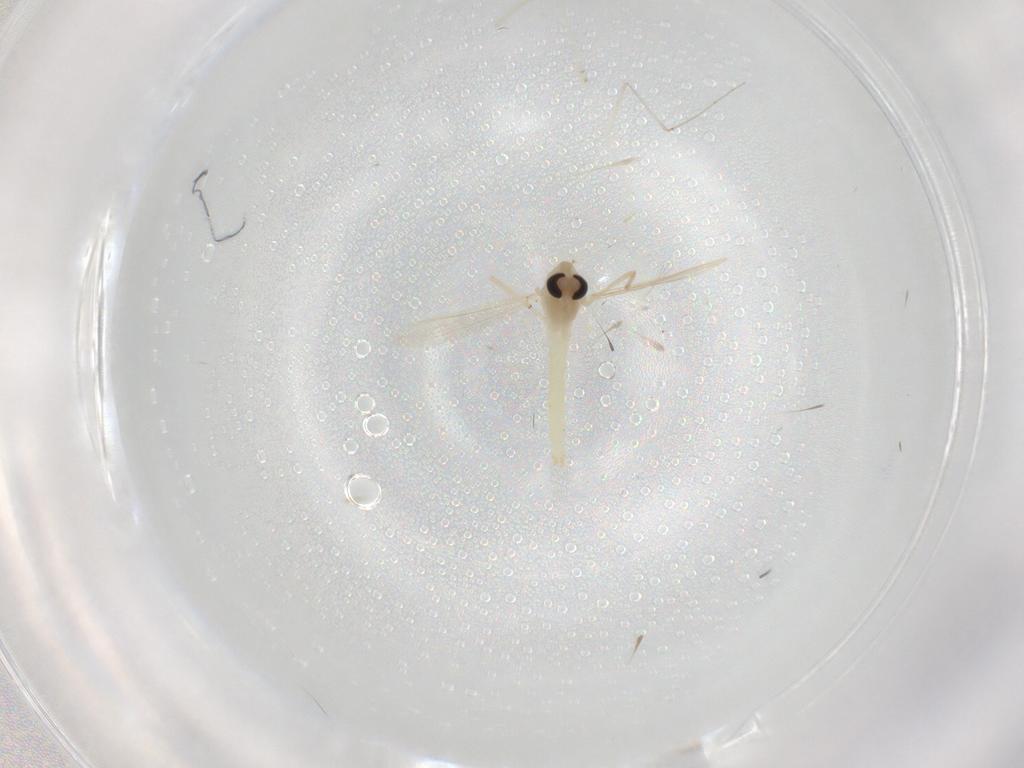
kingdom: Animalia
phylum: Arthropoda
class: Insecta
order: Diptera
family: Chironomidae
